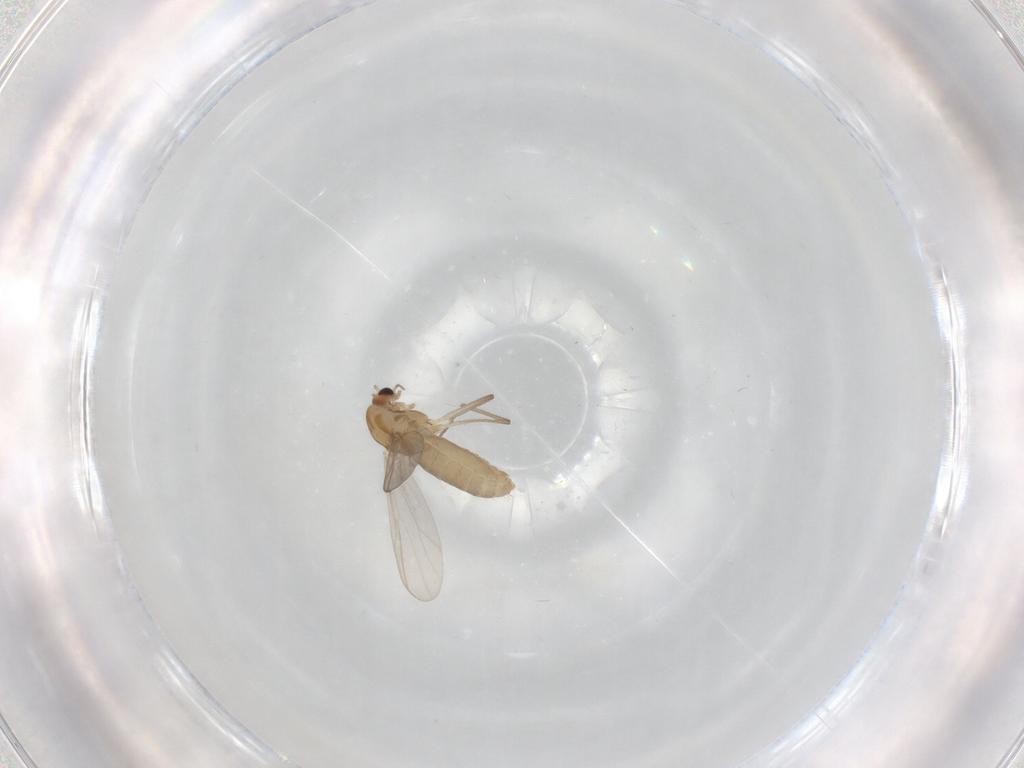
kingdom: Animalia
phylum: Arthropoda
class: Insecta
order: Diptera
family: Chironomidae
